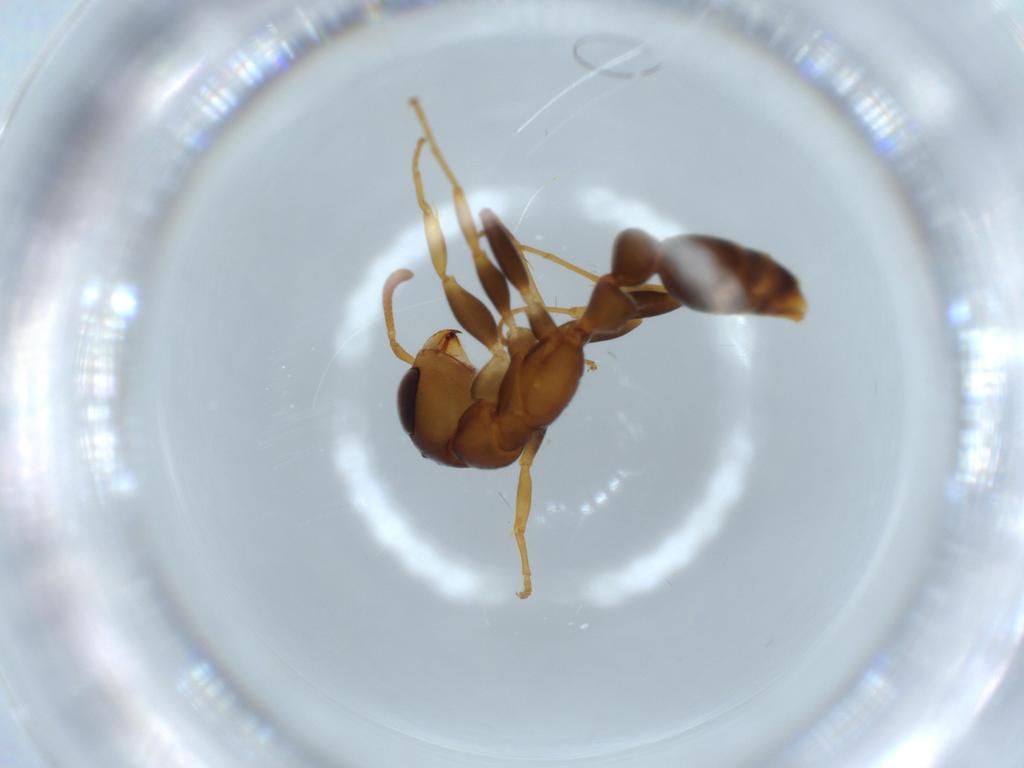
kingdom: Animalia
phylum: Arthropoda
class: Insecta
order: Hymenoptera
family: Formicidae
